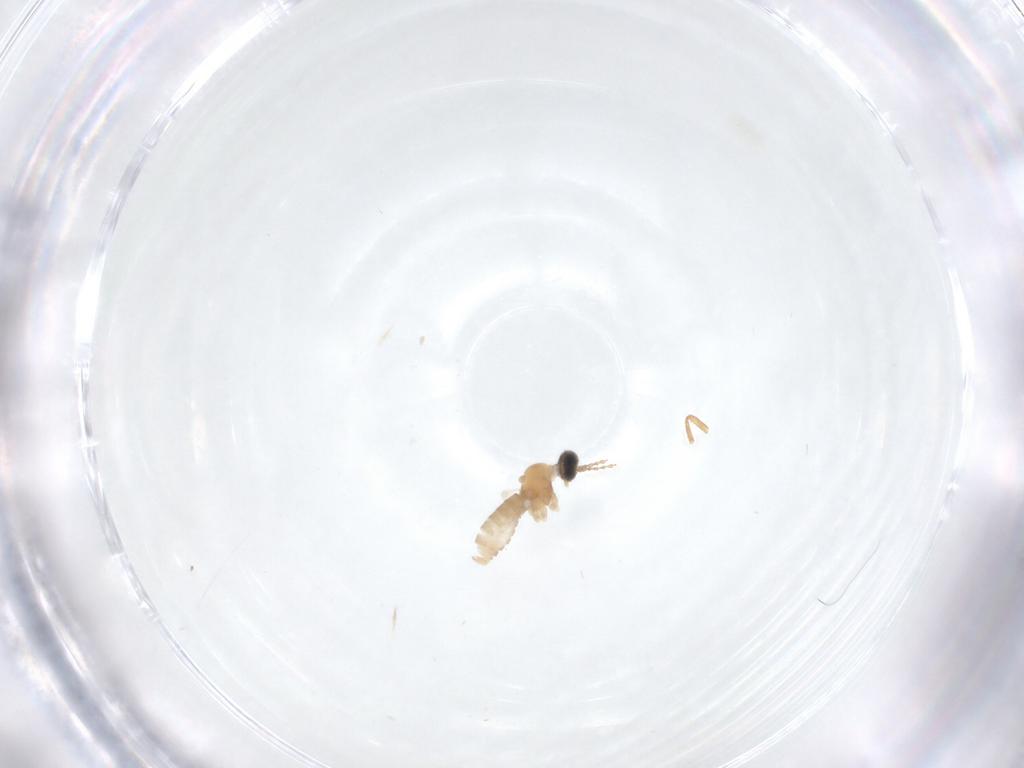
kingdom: Animalia
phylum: Arthropoda
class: Insecta
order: Diptera
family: Ceratopogonidae
